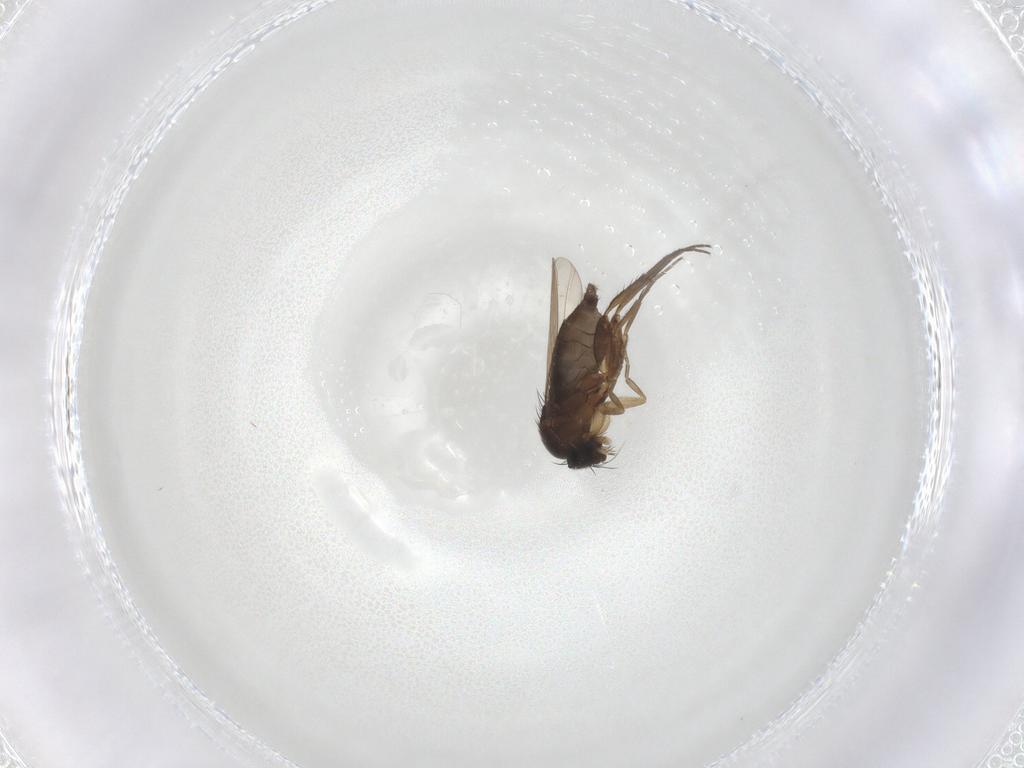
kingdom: Animalia
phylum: Arthropoda
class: Insecta
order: Diptera
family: Phoridae
